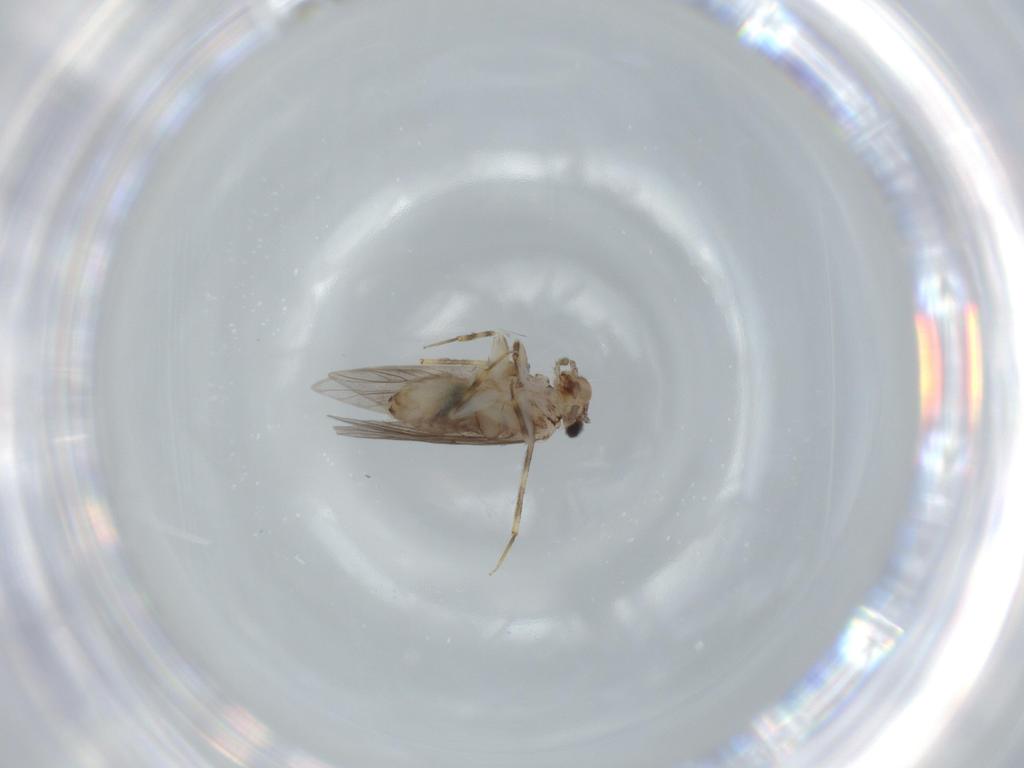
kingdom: Animalia
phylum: Arthropoda
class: Insecta
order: Psocodea
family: Lepidopsocidae
